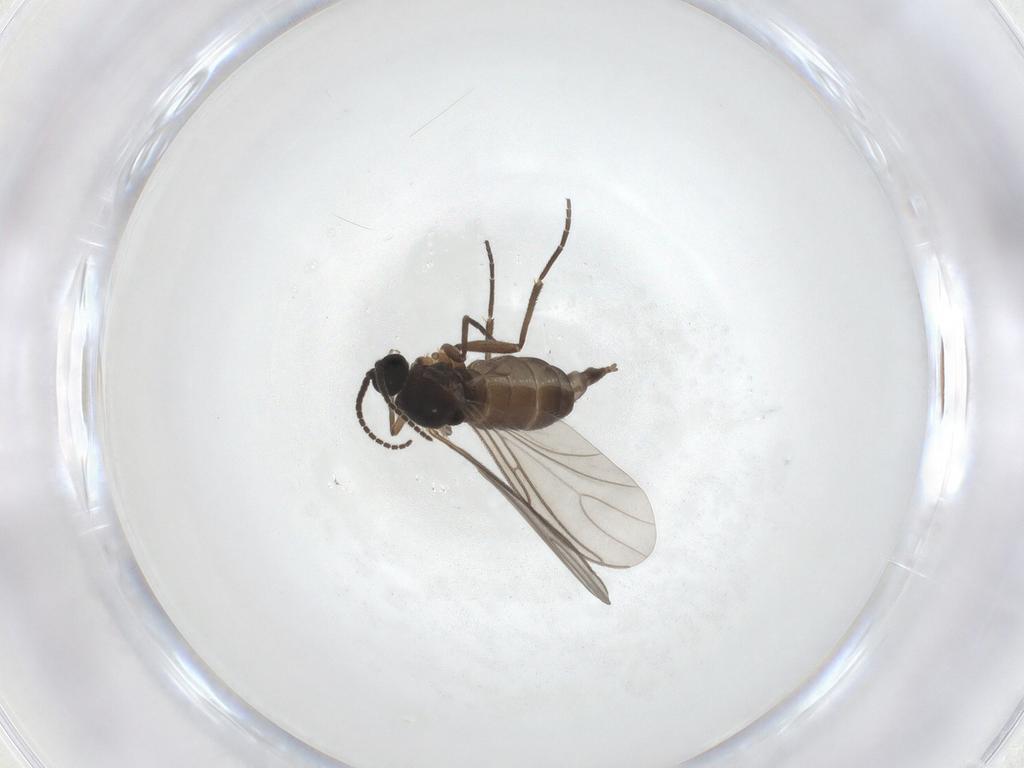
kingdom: Animalia
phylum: Arthropoda
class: Insecta
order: Diptera
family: Sciaridae
